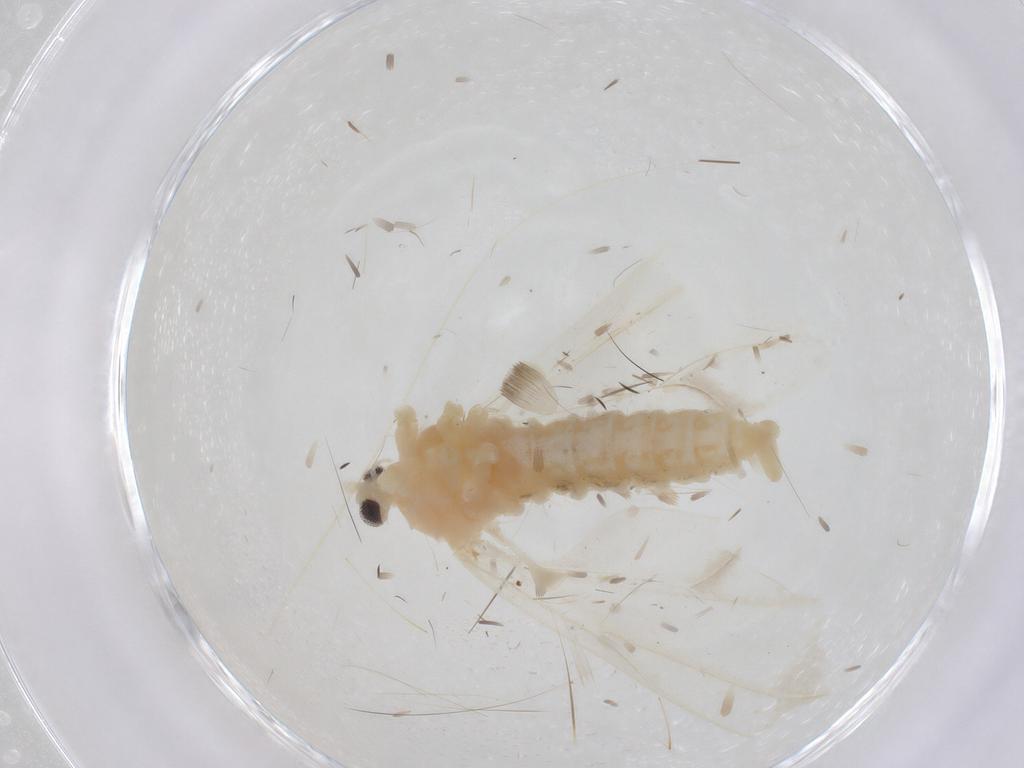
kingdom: Animalia
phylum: Arthropoda
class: Insecta
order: Diptera
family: Cecidomyiidae
